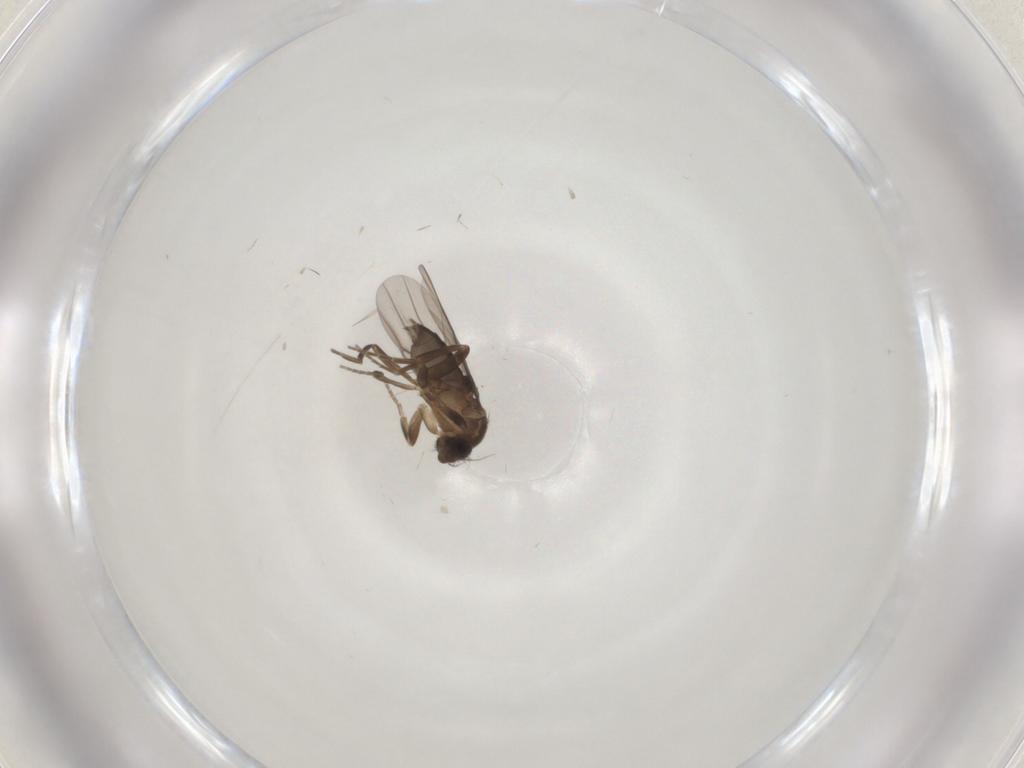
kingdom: Animalia
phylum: Arthropoda
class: Insecta
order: Diptera
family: Phoridae
